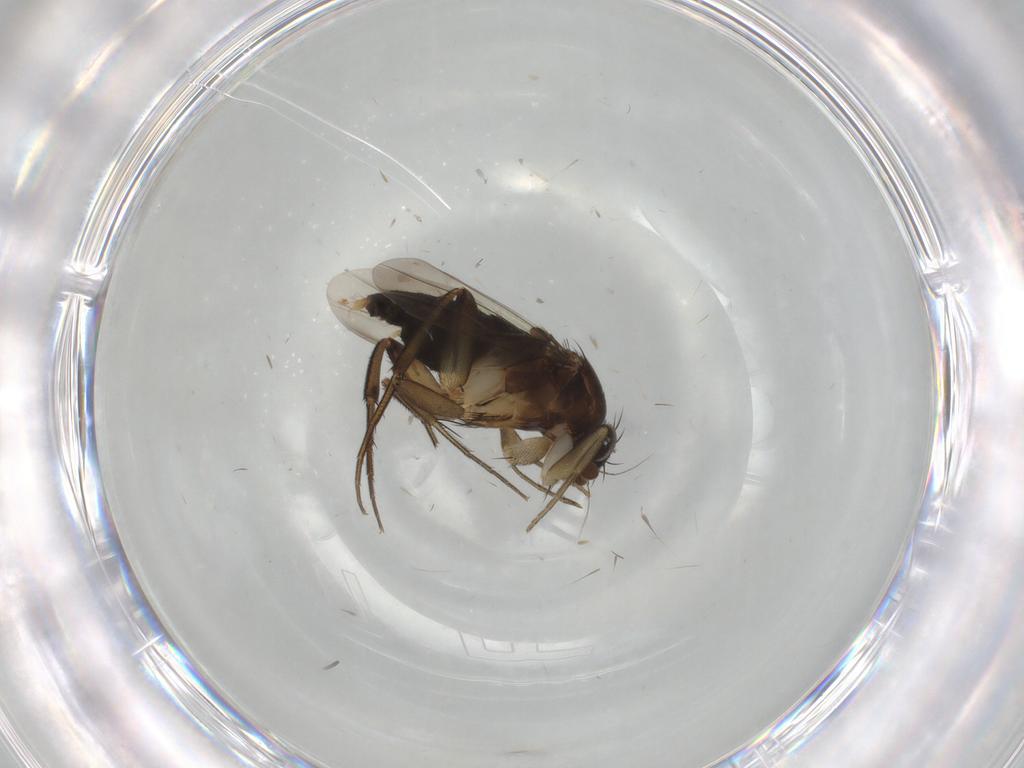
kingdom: Animalia
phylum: Arthropoda
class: Insecta
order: Diptera
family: Phoridae
